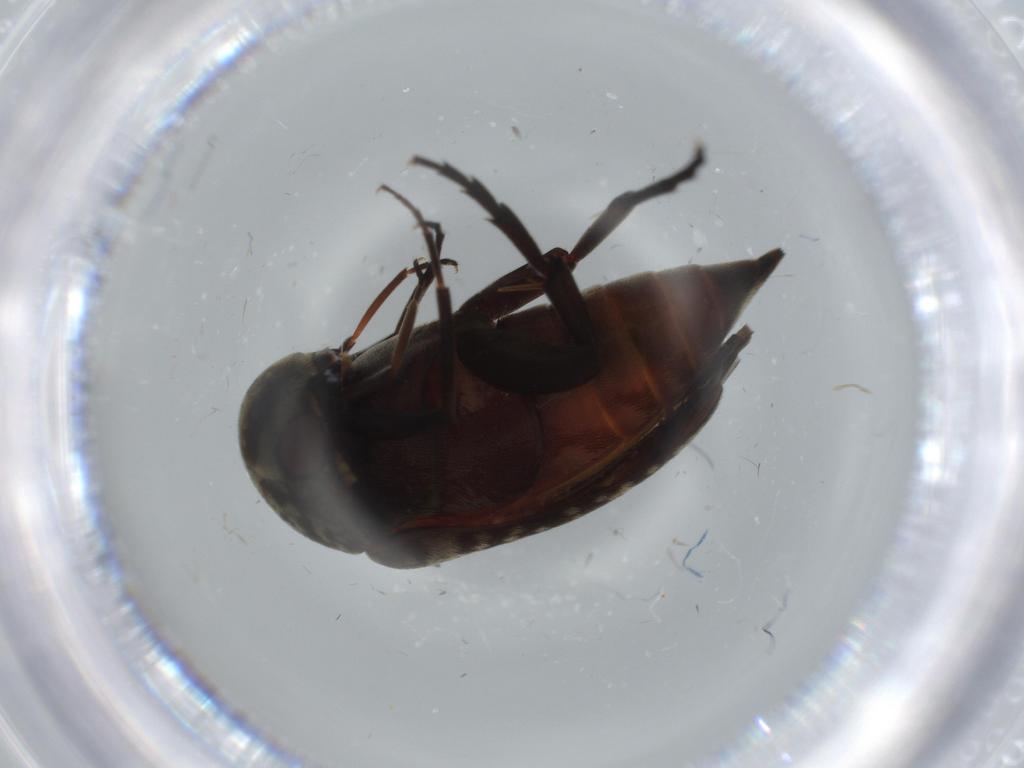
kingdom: Animalia
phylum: Arthropoda
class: Insecta
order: Coleoptera
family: Mordellidae
